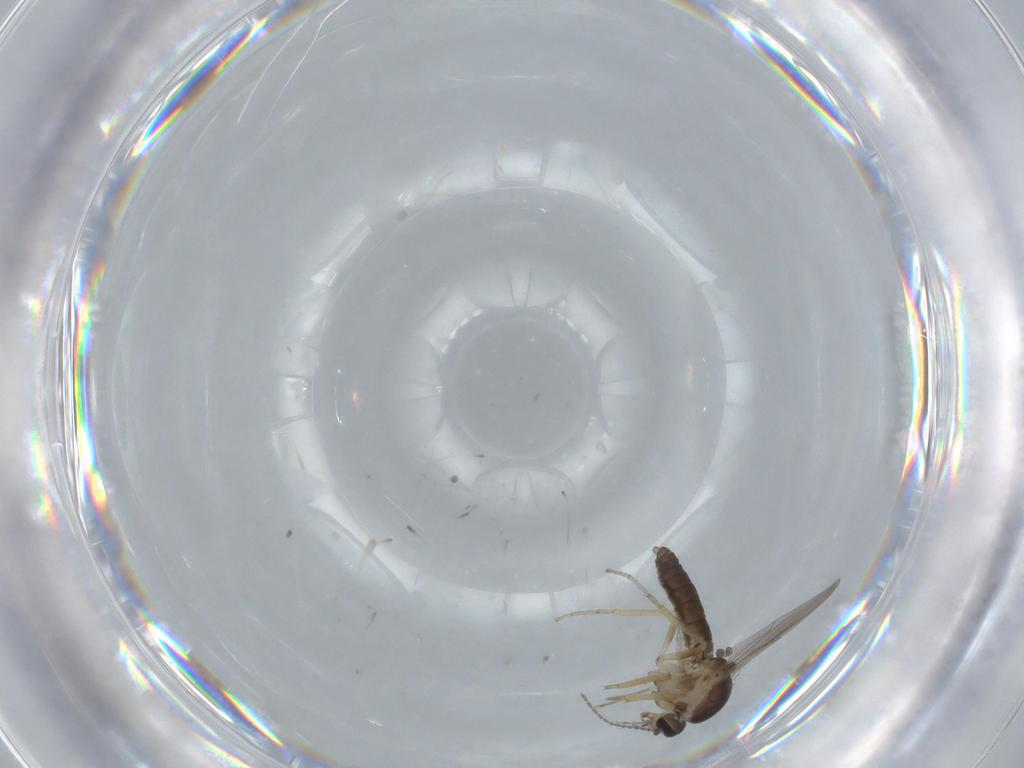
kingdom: Animalia
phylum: Arthropoda
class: Insecta
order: Diptera
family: Ceratopogonidae
